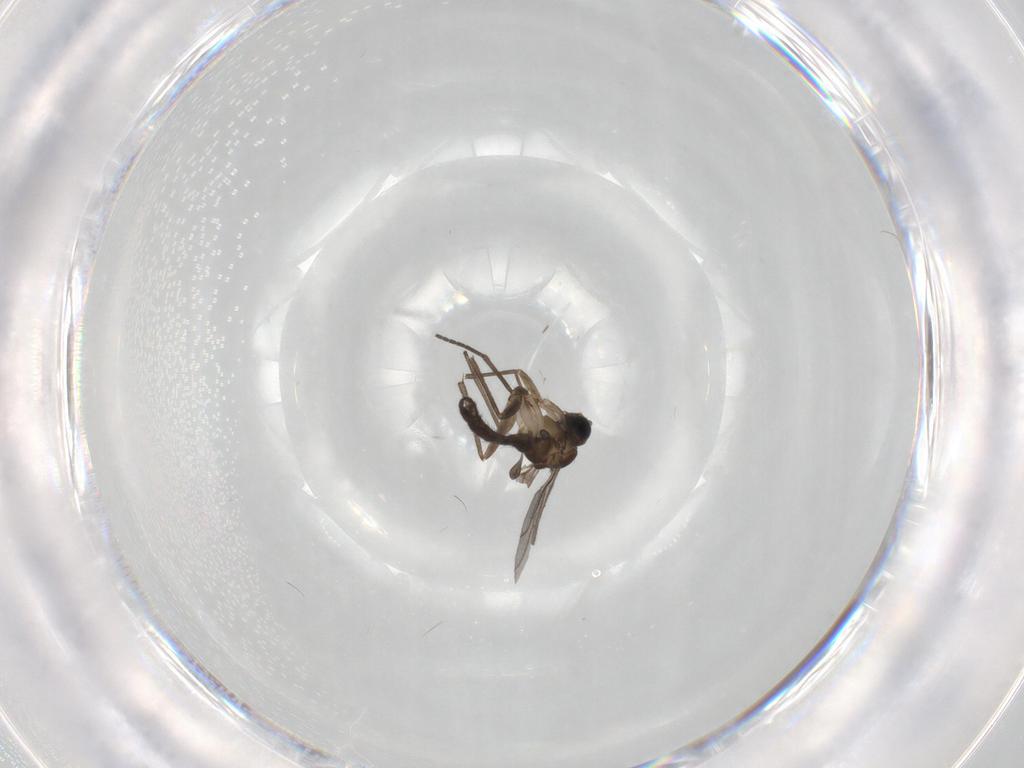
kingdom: Animalia
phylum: Arthropoda
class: Insecta
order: Diptera
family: Sciaridae
